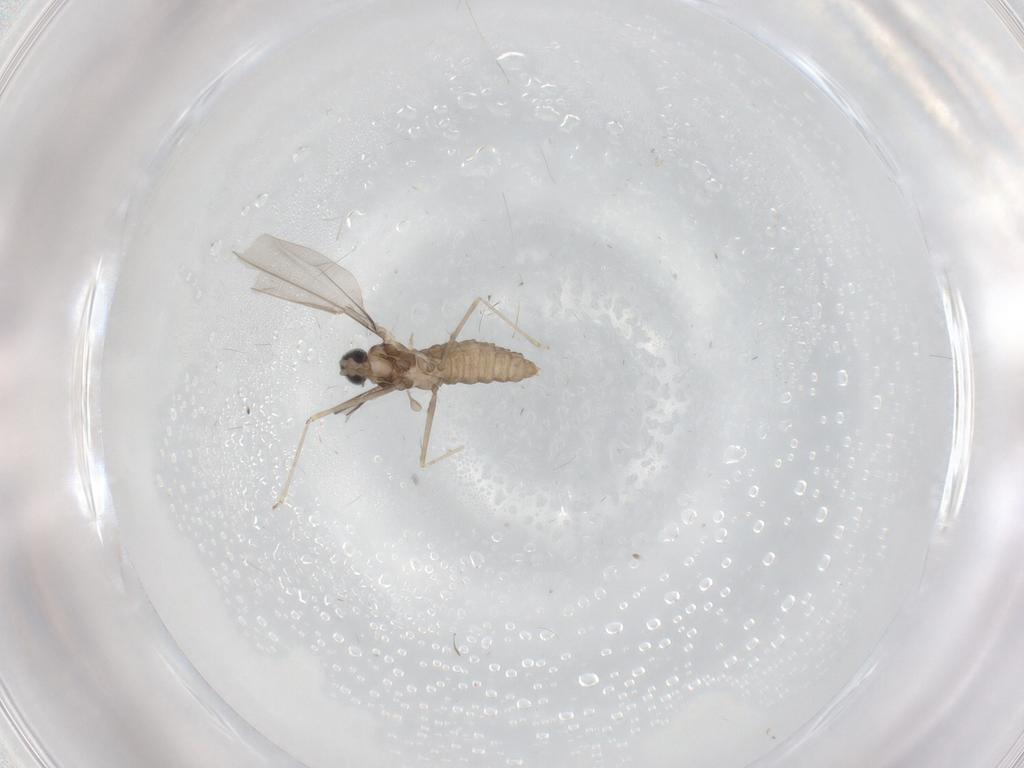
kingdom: Animalia
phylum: Arthropoda
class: Insecta
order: Diptera
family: Cecidomyiidae
